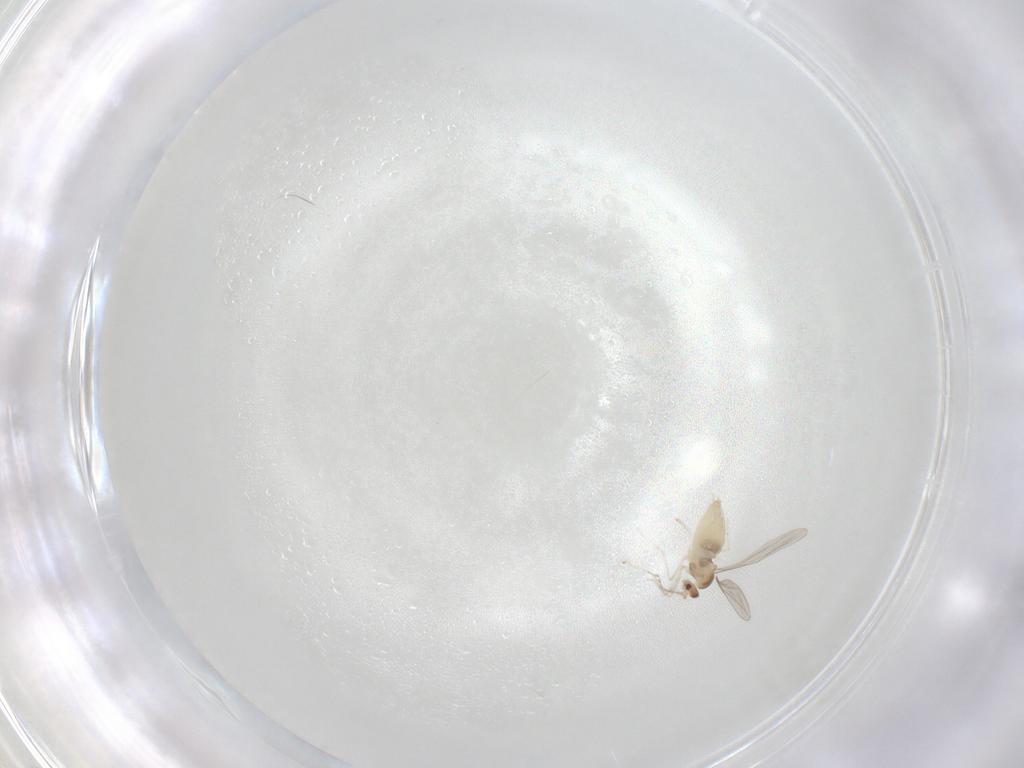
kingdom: Animalia
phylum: Arthropoda
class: Insecta
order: Diptera
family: Cecidomyiidae
